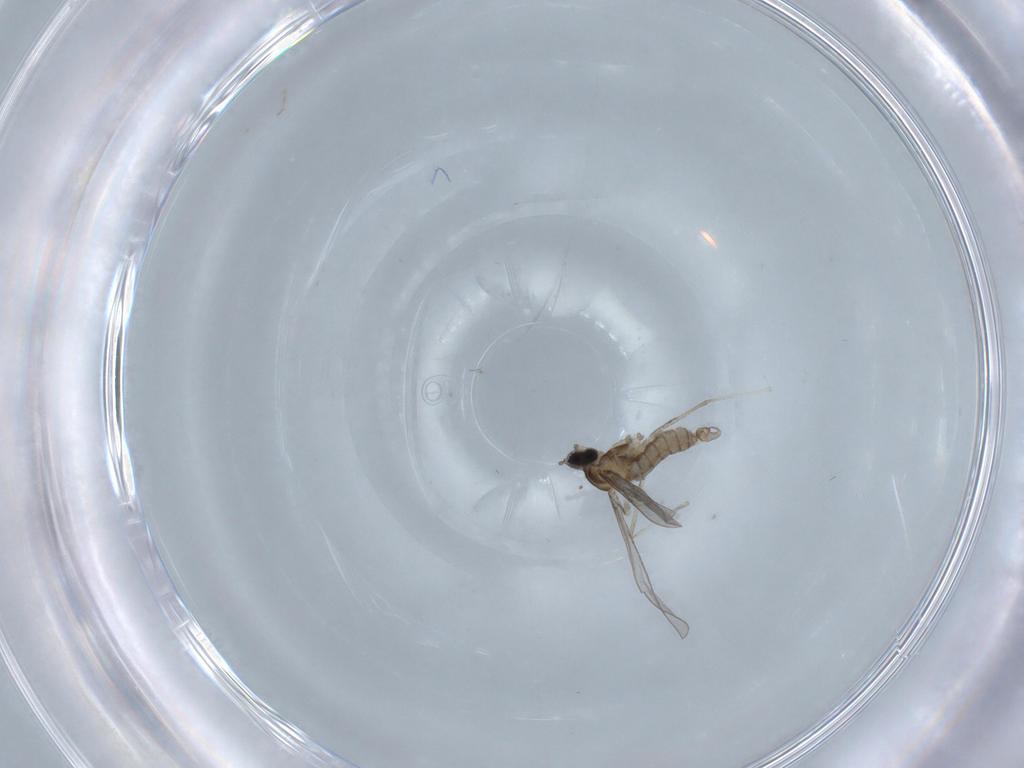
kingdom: Animalia
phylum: Arthropoda
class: Insecta
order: Diptera
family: Cecidomyiidae
